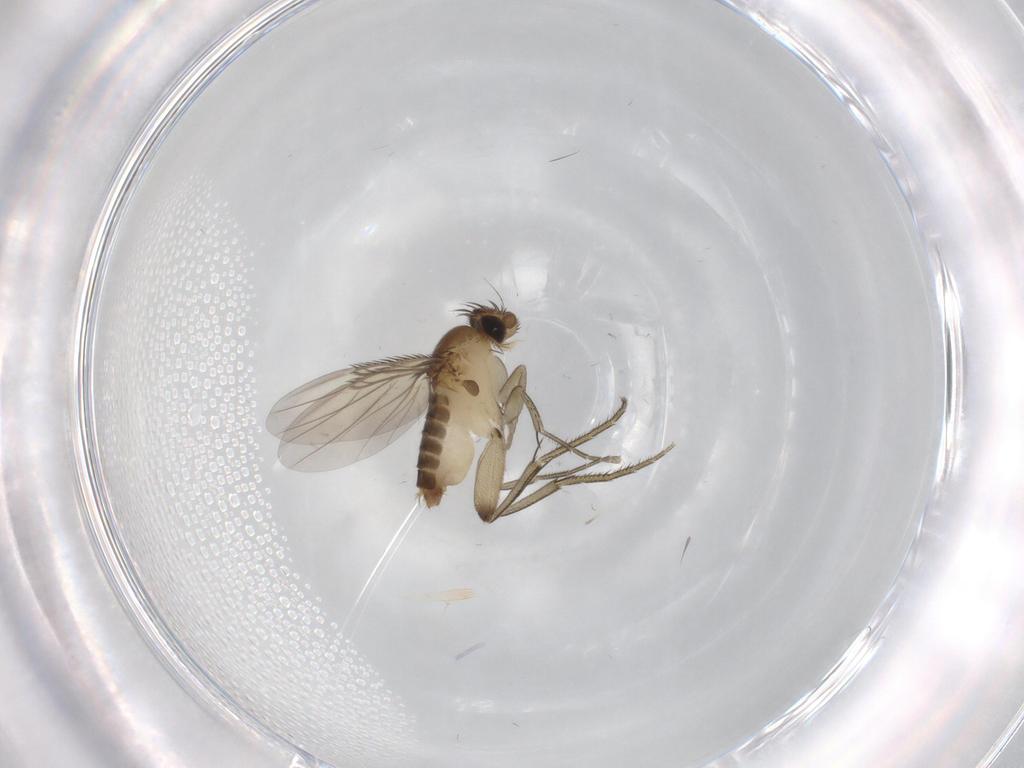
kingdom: Animalia
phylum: Arthropoda
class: Insecta
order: Diptera
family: Phoridae
